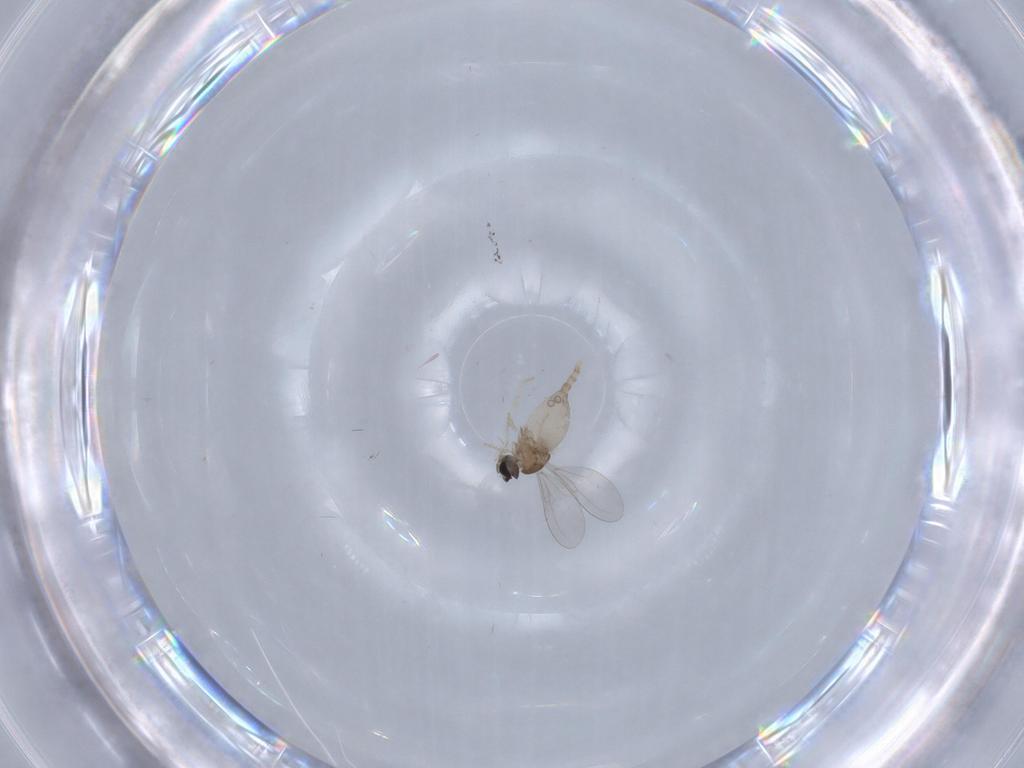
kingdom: Animalia
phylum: Arthropoda
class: Insecta
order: Diptera
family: Cecidomyiidae
